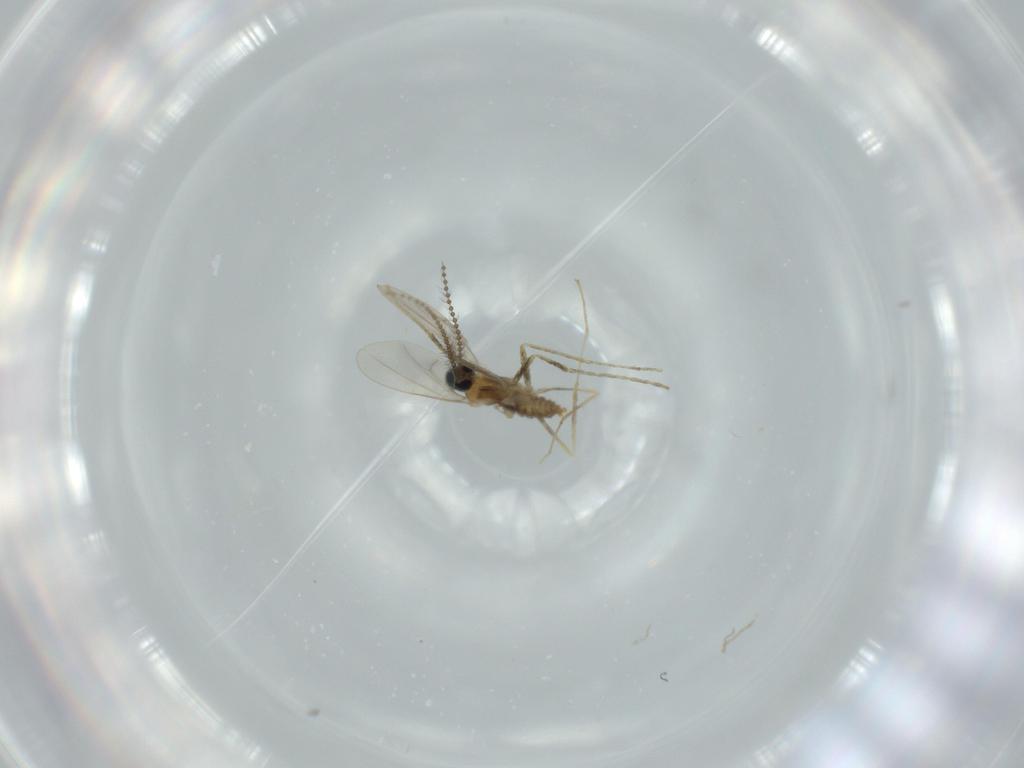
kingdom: Animalia
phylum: Arthropoda
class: Insecta
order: Diptera
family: Cecidomyiidae
